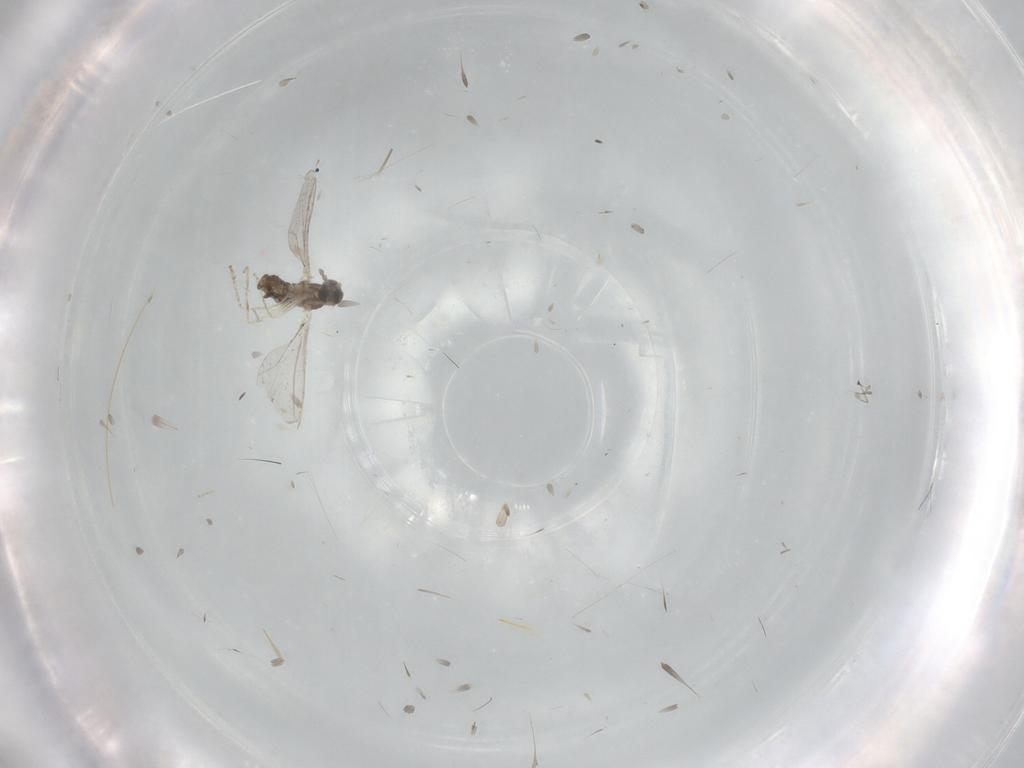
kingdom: Animalia
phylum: Arthropoda
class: Insecta
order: Diptera
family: Cecidomyiidae
